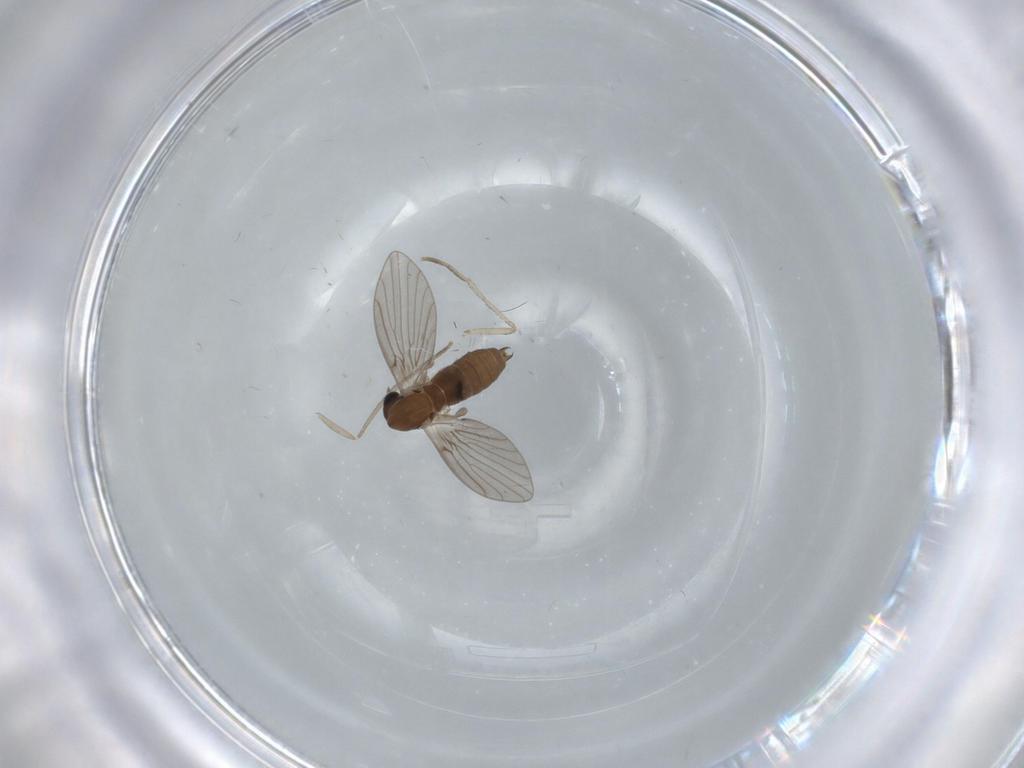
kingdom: Animalia
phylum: Arthropoda
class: Insecta
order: Diptera
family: Psychodidae
